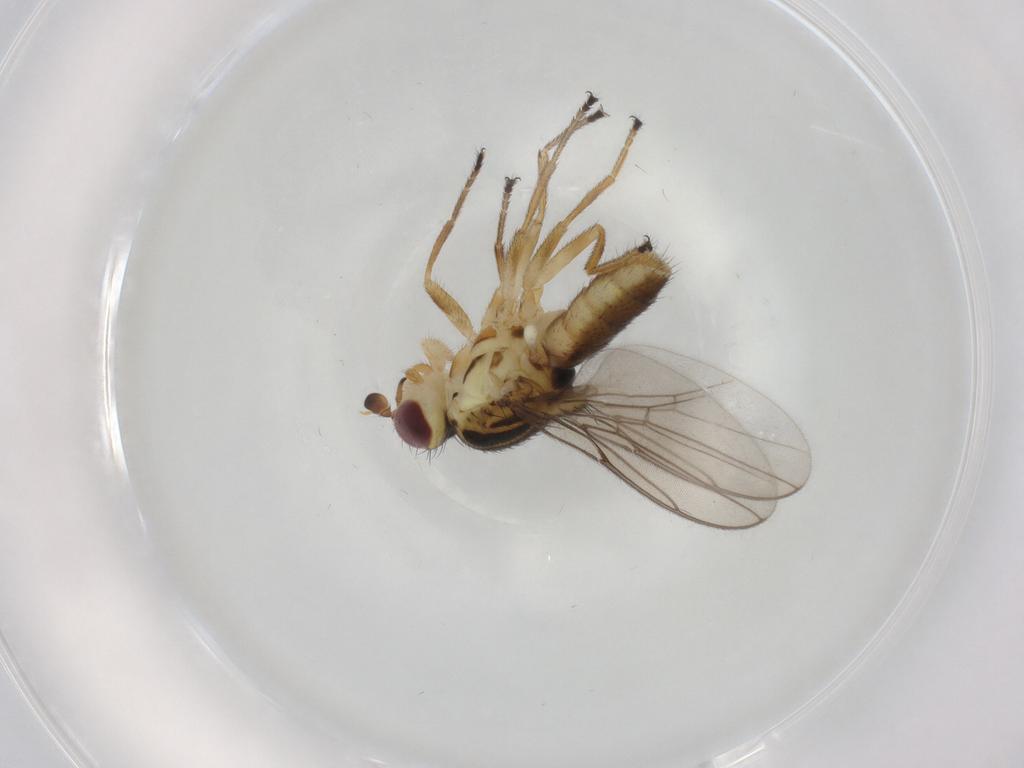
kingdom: Animalia
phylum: Arthropoda
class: Insecta
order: Diptera
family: Chloropidae
